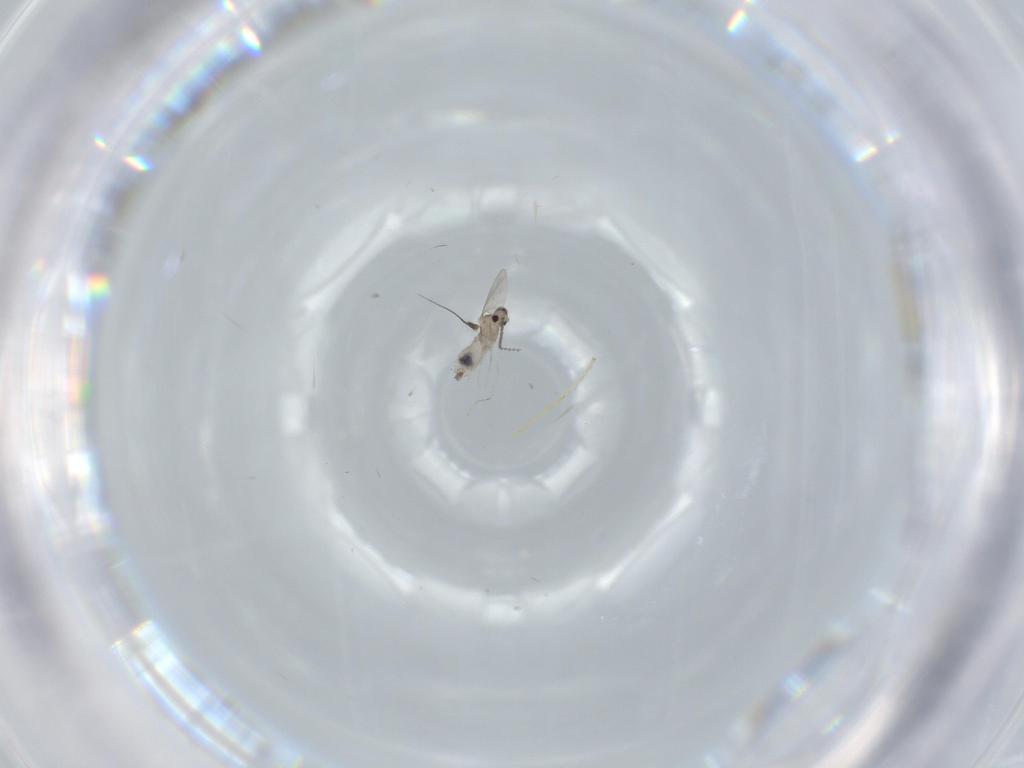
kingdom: Animalia
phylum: Arthropoda
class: Insecta
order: Diptera
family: Chironomidae
